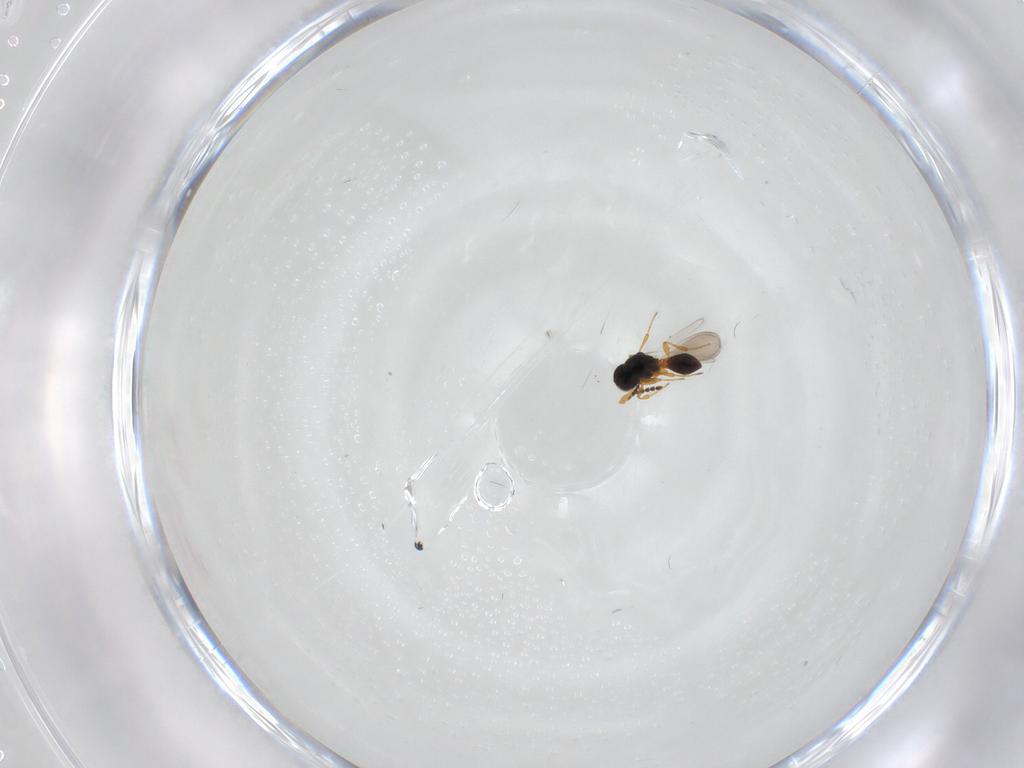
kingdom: Animalia
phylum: Arthropoda
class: Insecta
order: Hymenoptera
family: Platygastridae
